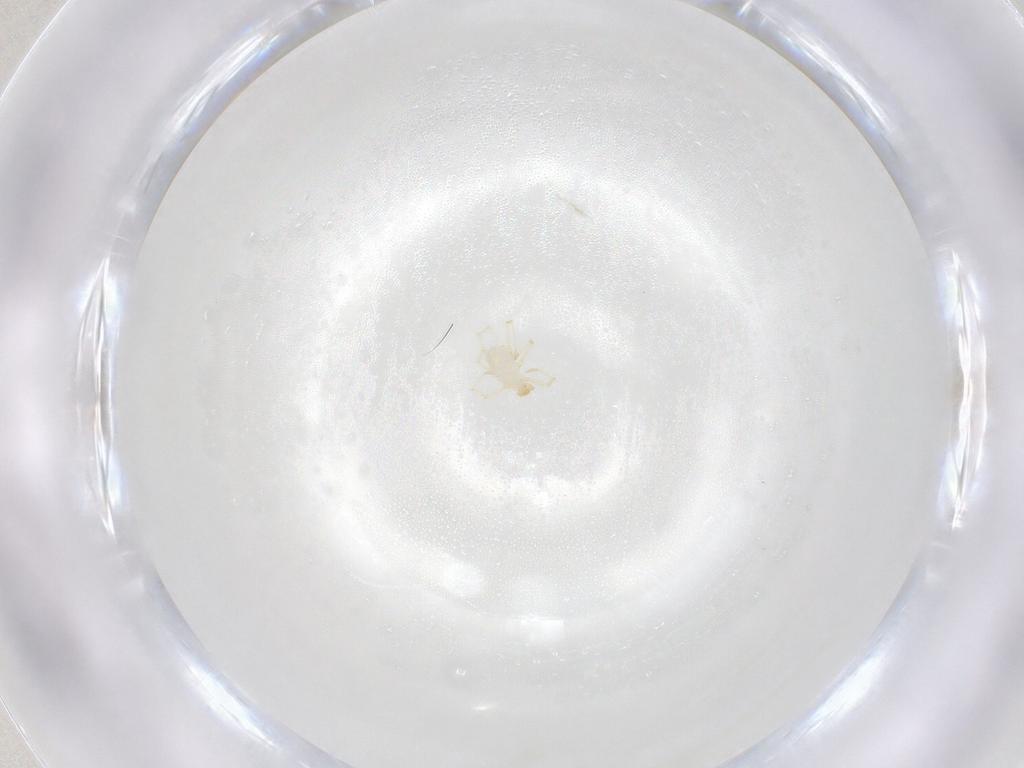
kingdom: Animalia
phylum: Arthropoda
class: Arachnida
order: Trombidiformes
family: Erythraeidae
